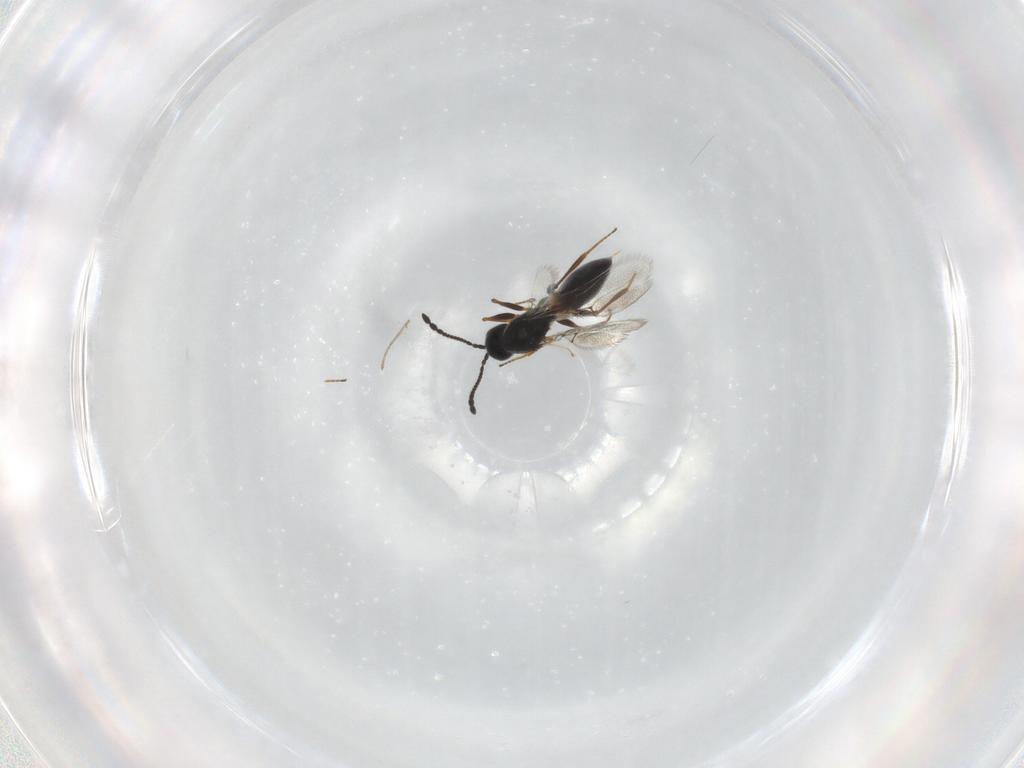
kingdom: Animalia
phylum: Arthropoda
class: Insecta
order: Hymenoptera
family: Figitidae
